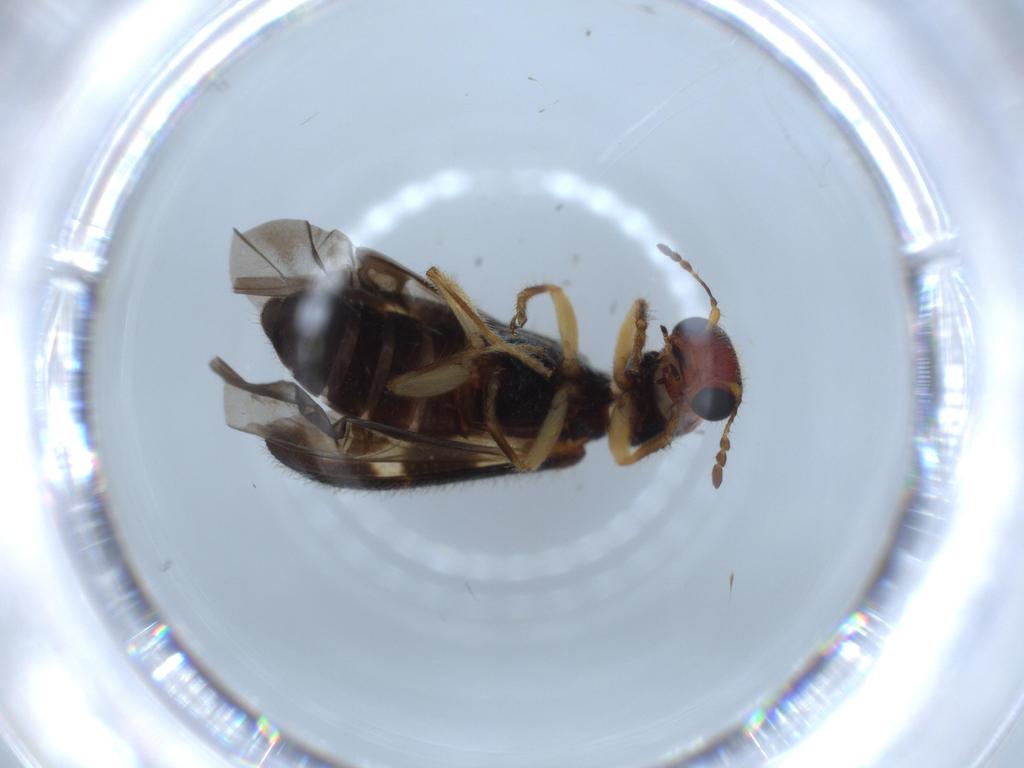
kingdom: Animalia
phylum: Arthropoda
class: Insecta
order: Coleoptera
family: Cleridae
